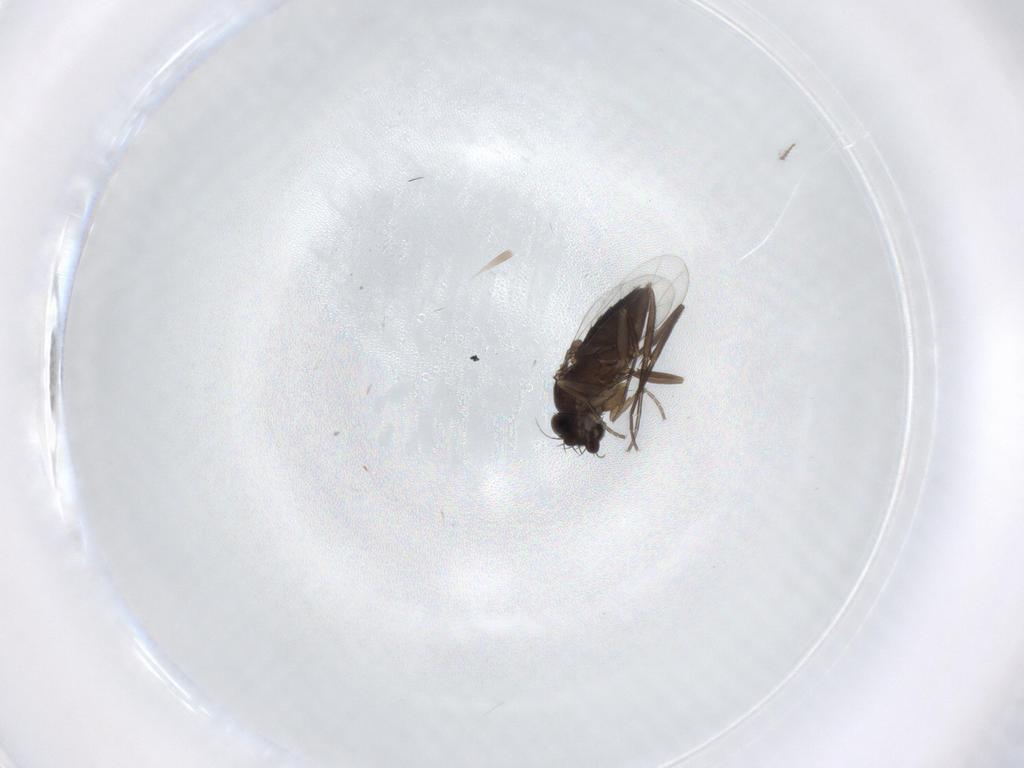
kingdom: Animalia
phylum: Arthropoda
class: Insecta
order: Diptera
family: Phoridae
